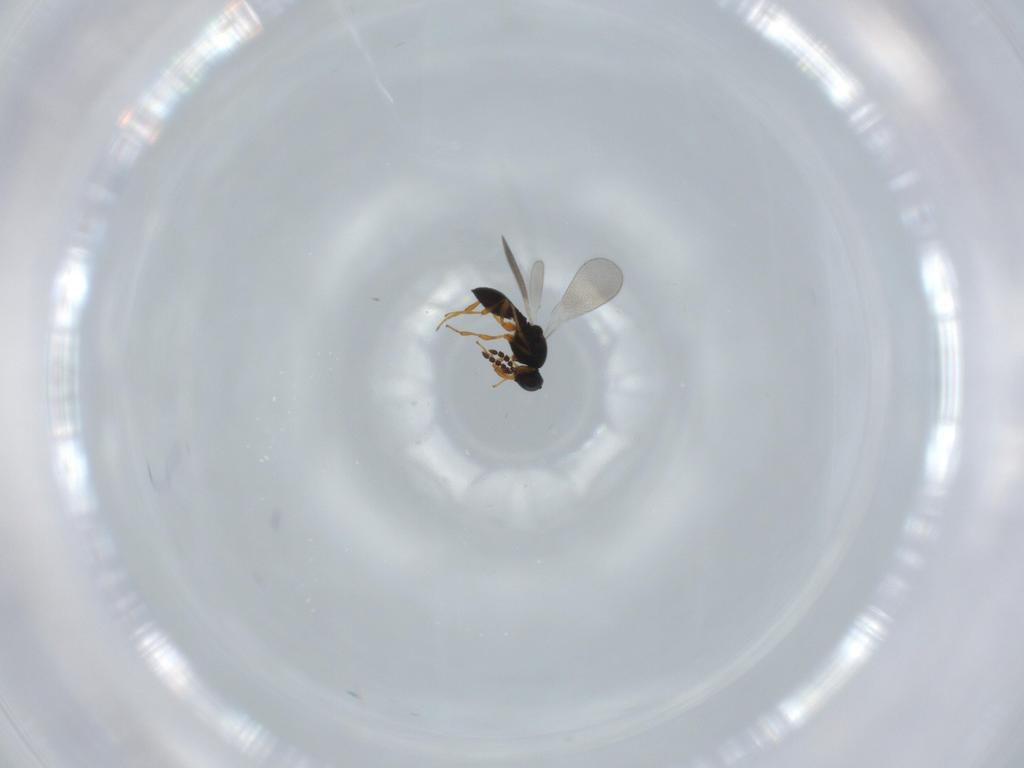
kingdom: Animalia
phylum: Arthropoda
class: Insecta
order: Hymenoptera
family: Platygastridae
